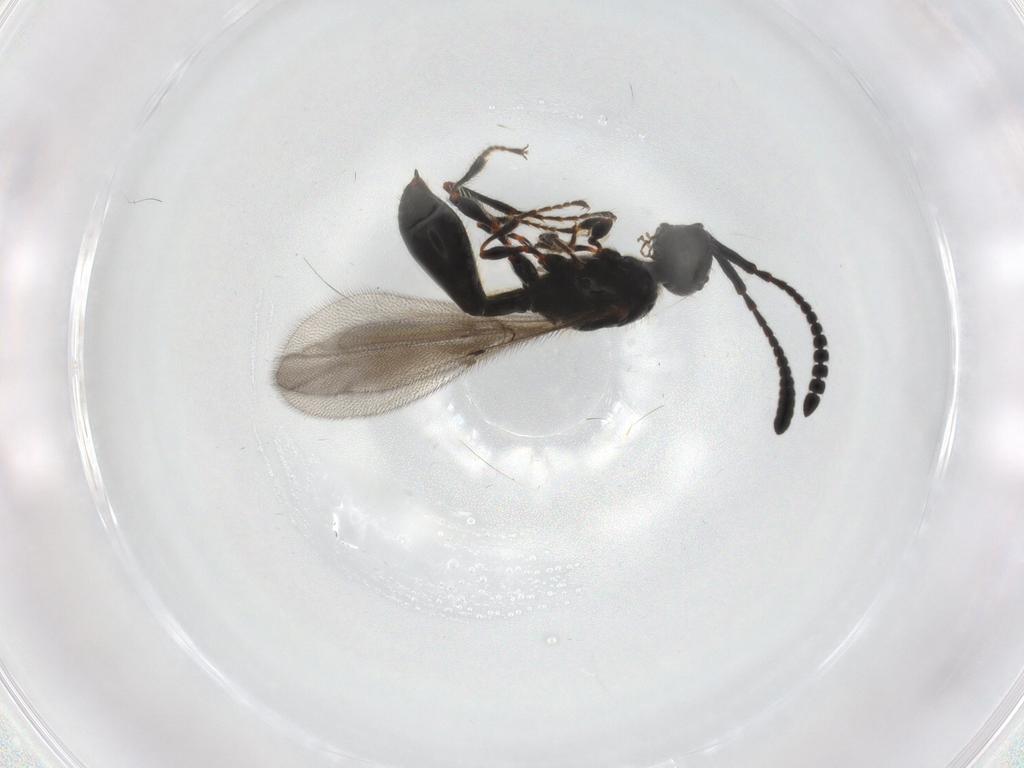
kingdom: Animalia
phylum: Arthropoda
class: Insecta
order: Hymenoptera
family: Diapriidae
